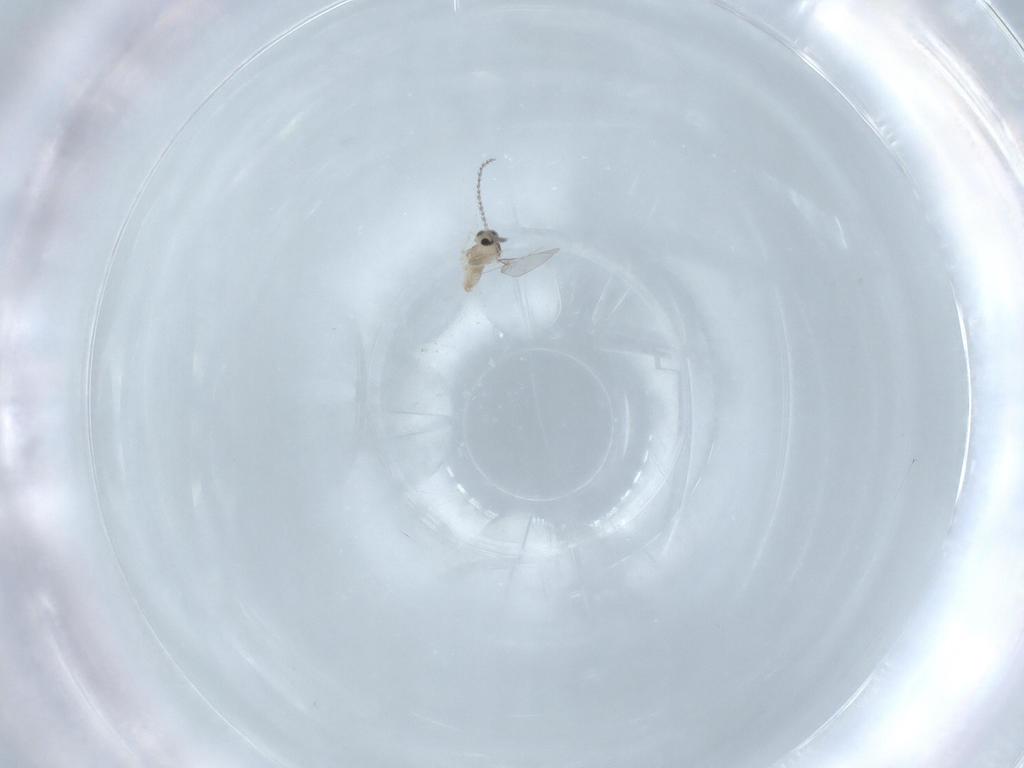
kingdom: Animalia
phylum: Arthropoda
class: Insecta
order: Diptera
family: Cecidomyiidae
